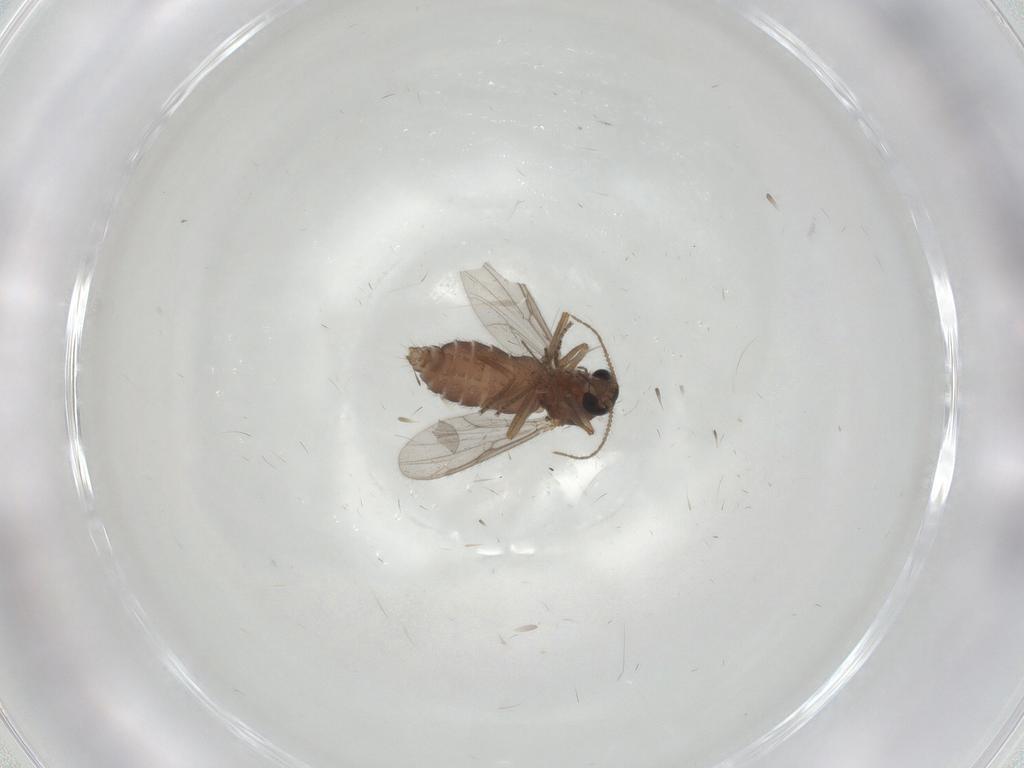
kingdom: Animalia
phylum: Arthropoda
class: Insecta
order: Diptera
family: Ceratopogonidae
